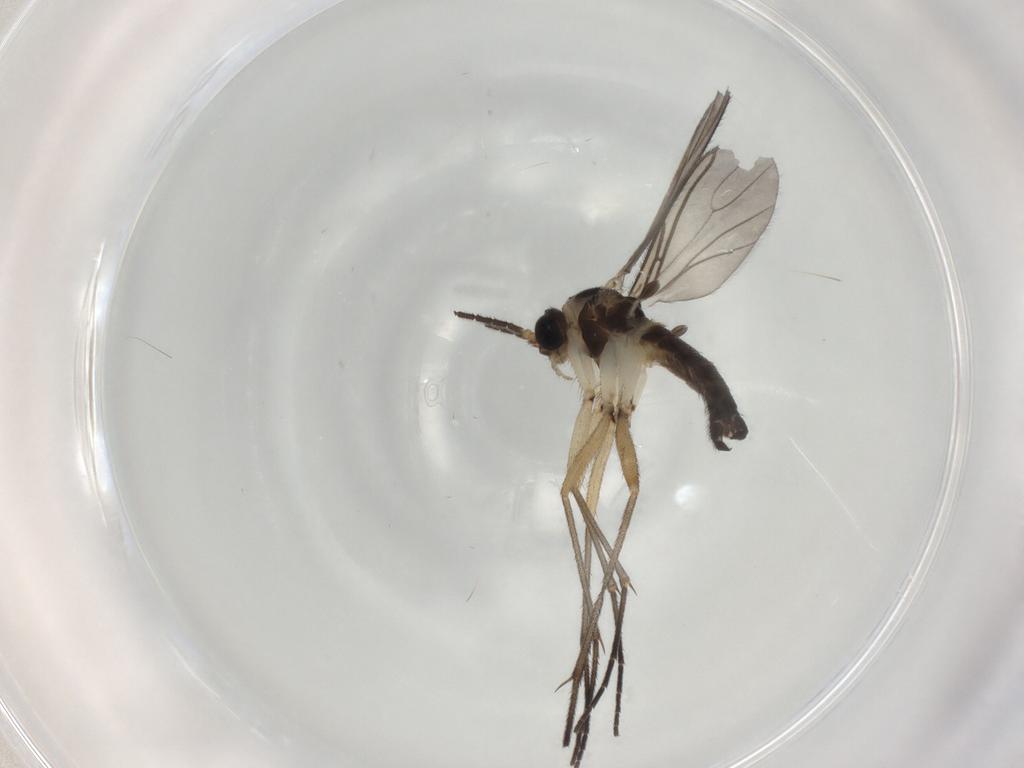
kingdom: Animalia
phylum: Arthropoda
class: Insecta
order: Diptera
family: Sciaridae
